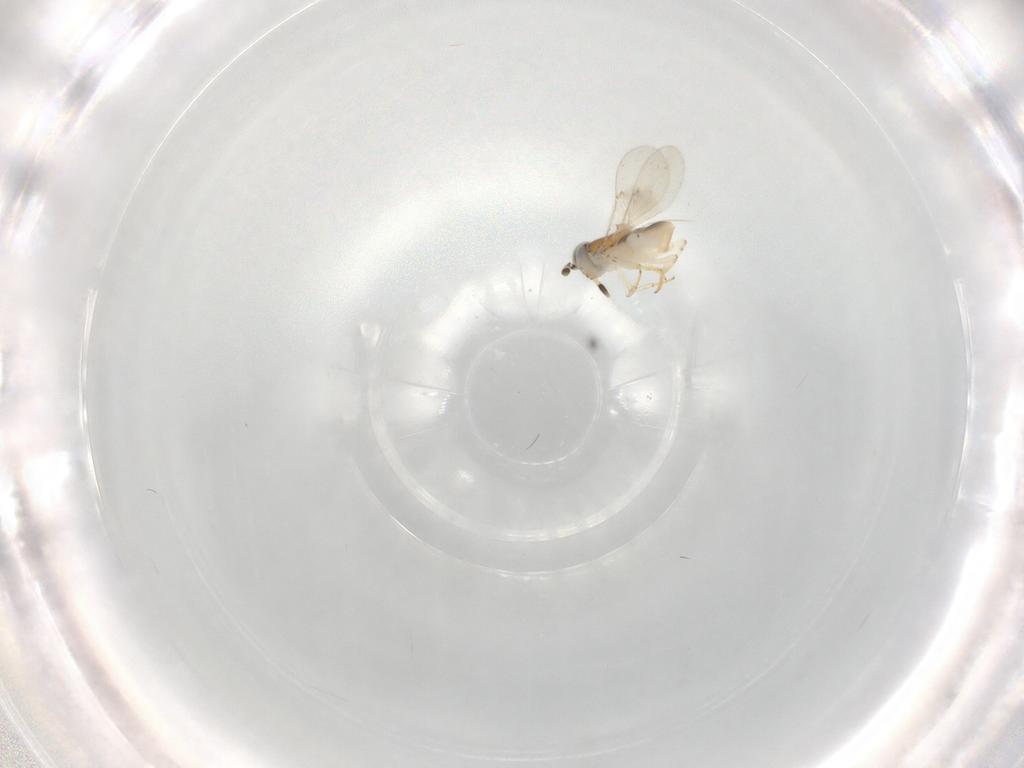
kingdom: Animalia
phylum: Arthropoda
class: Insecta
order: Hymenoptera
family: Encyrtidae
